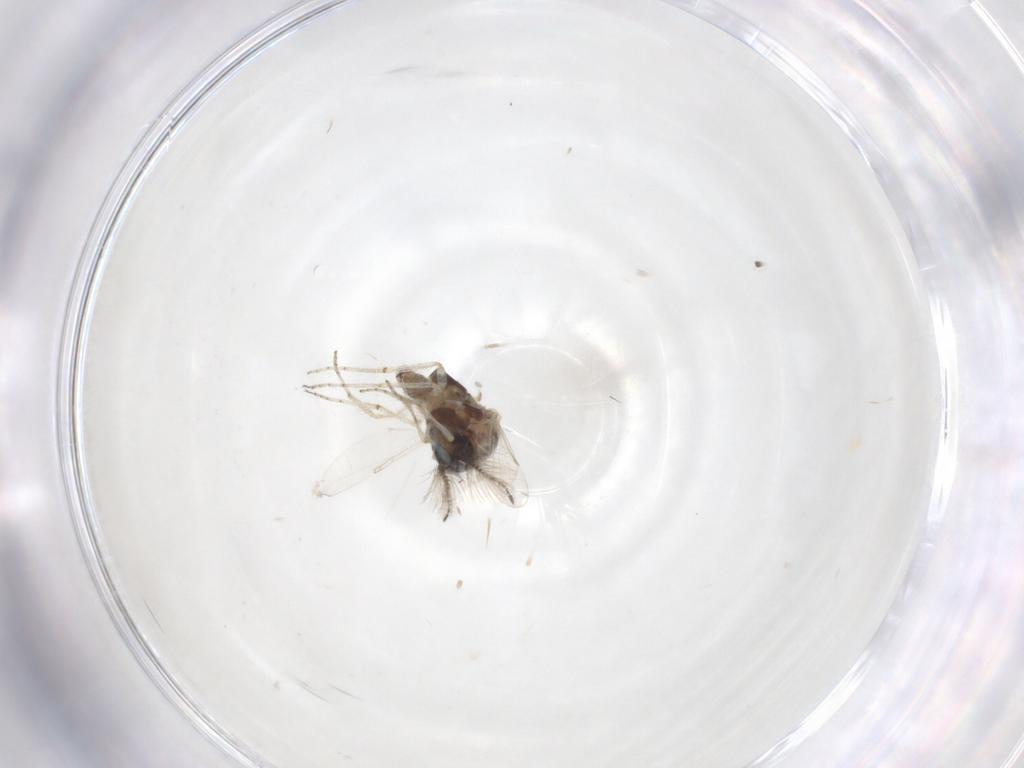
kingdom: Animalia
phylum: Arthropoda
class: Insecta
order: Diptera
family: Ceratopogonidae
